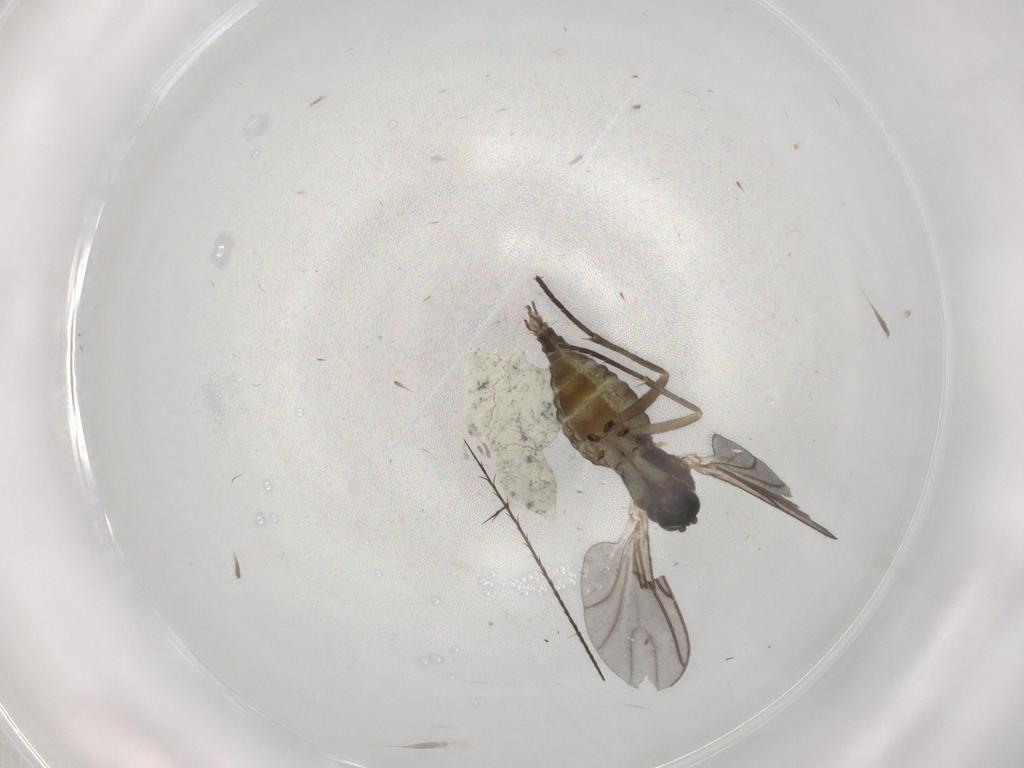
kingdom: Animalia
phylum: Arthropoda
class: Insecta
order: Diptera
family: Sciaridae
